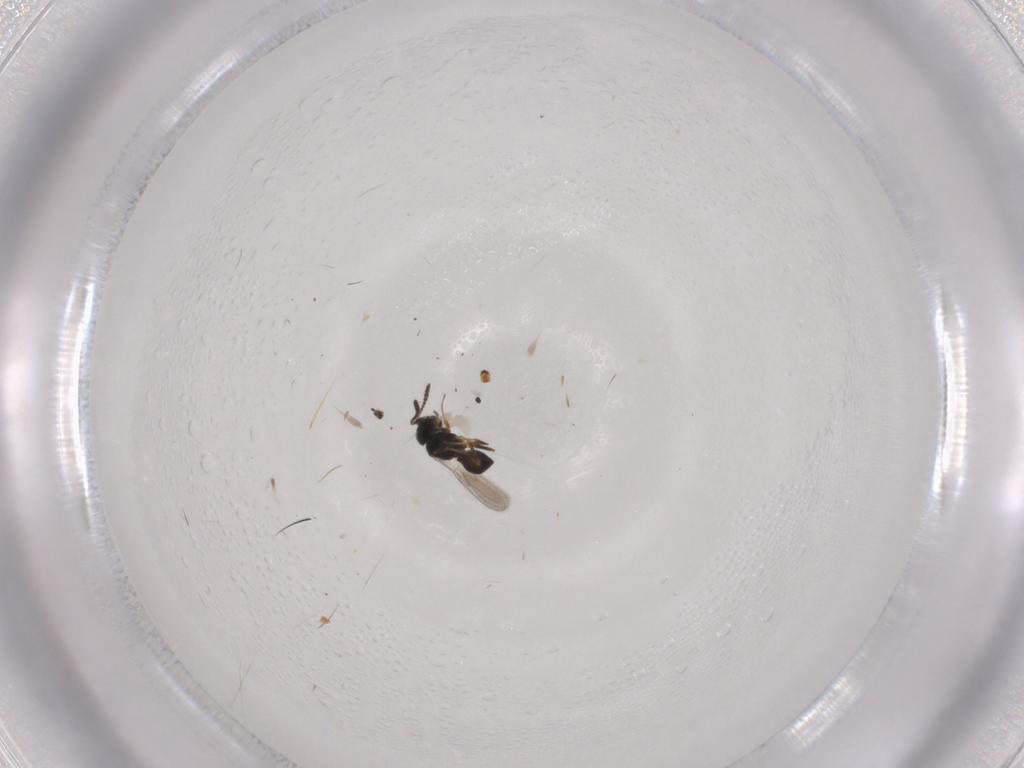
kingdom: Animalia
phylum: Arthropoda
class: Insecta
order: Hymenoptera
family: Scelionidae
